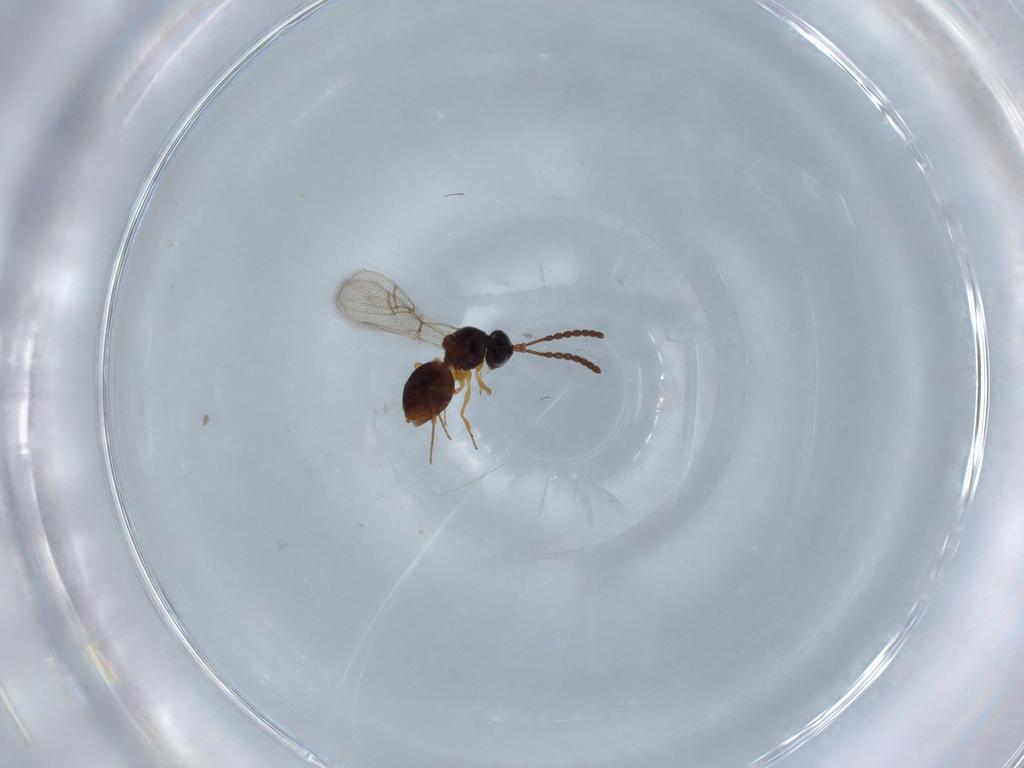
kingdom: Animalia
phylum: Arthropoda
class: Insecta
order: Hymenoptera
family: Figitidae
